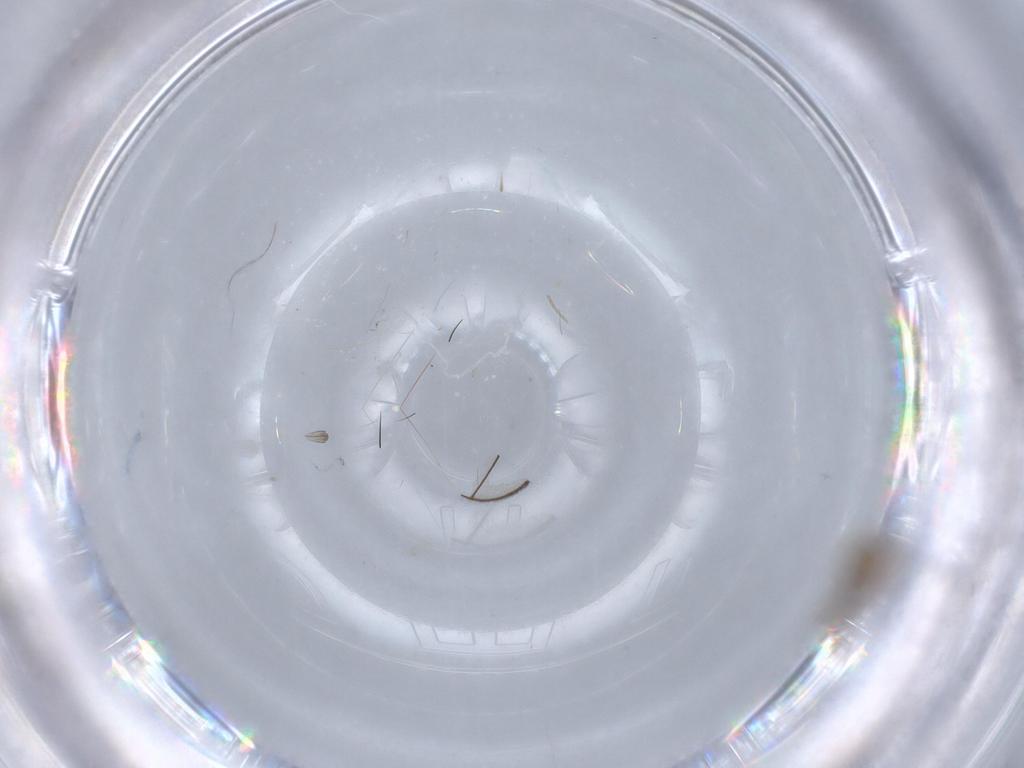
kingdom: Animalia
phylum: Arthropoda
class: Insecta
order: Diptera
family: Chironomidae
